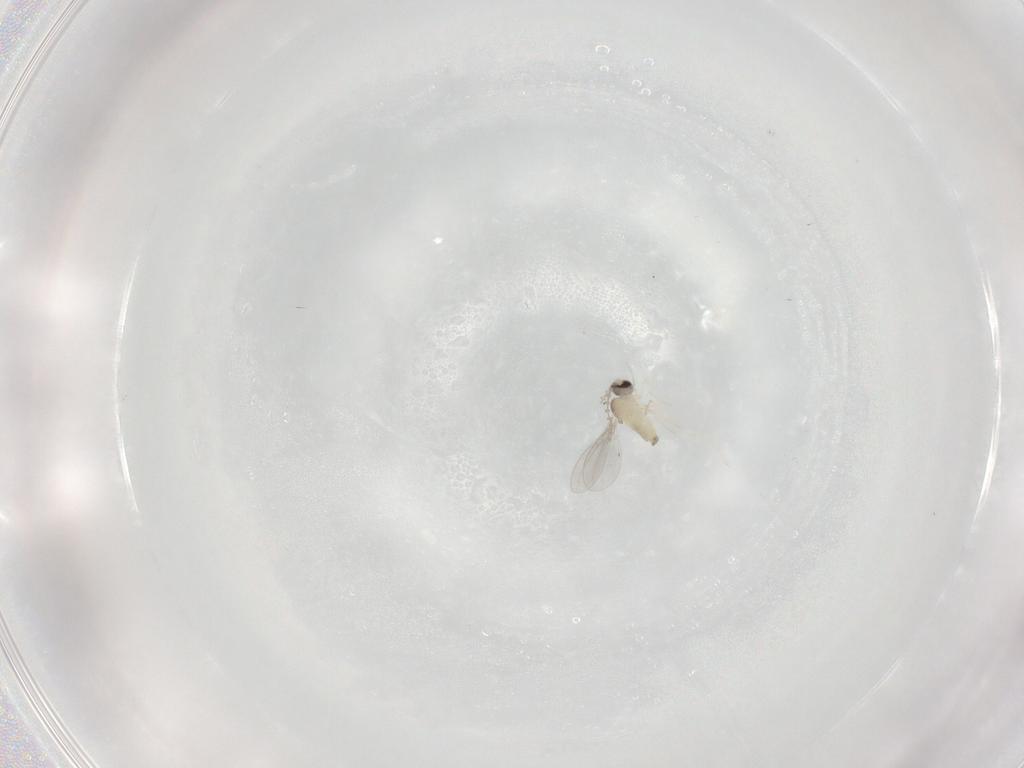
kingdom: Animalia
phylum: Arthropoda
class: Insecta
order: Diptera
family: Cecidomyiidae
